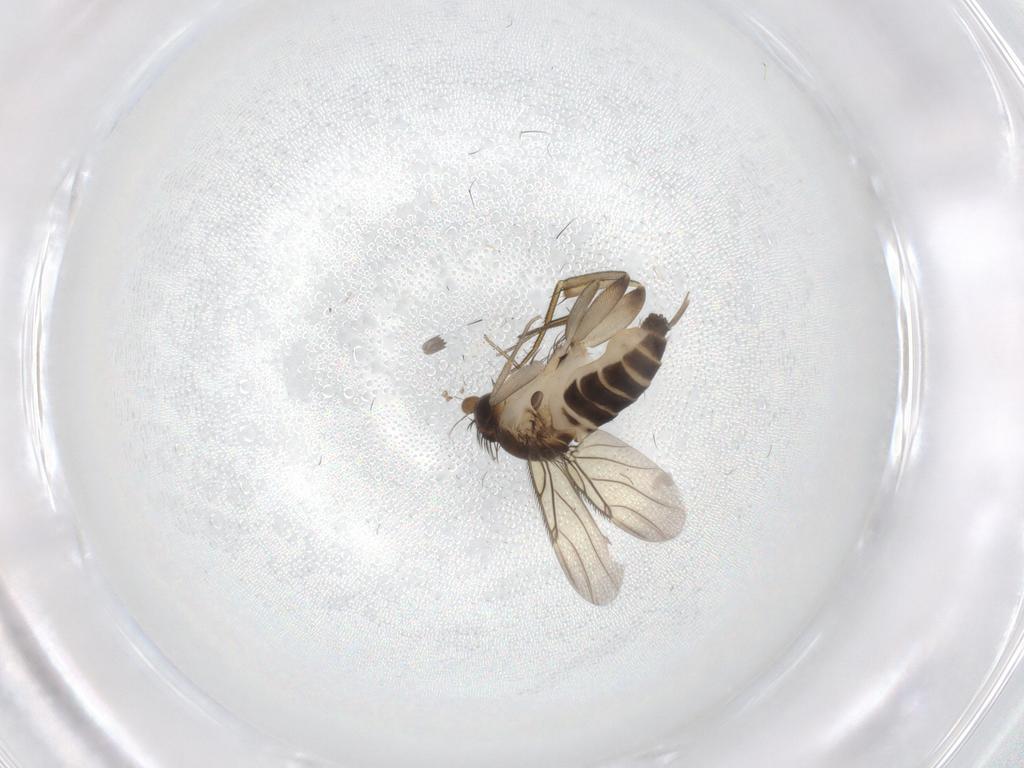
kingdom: Animalia
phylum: Arthropoda
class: Insecta
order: Diptera
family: Phoridae
